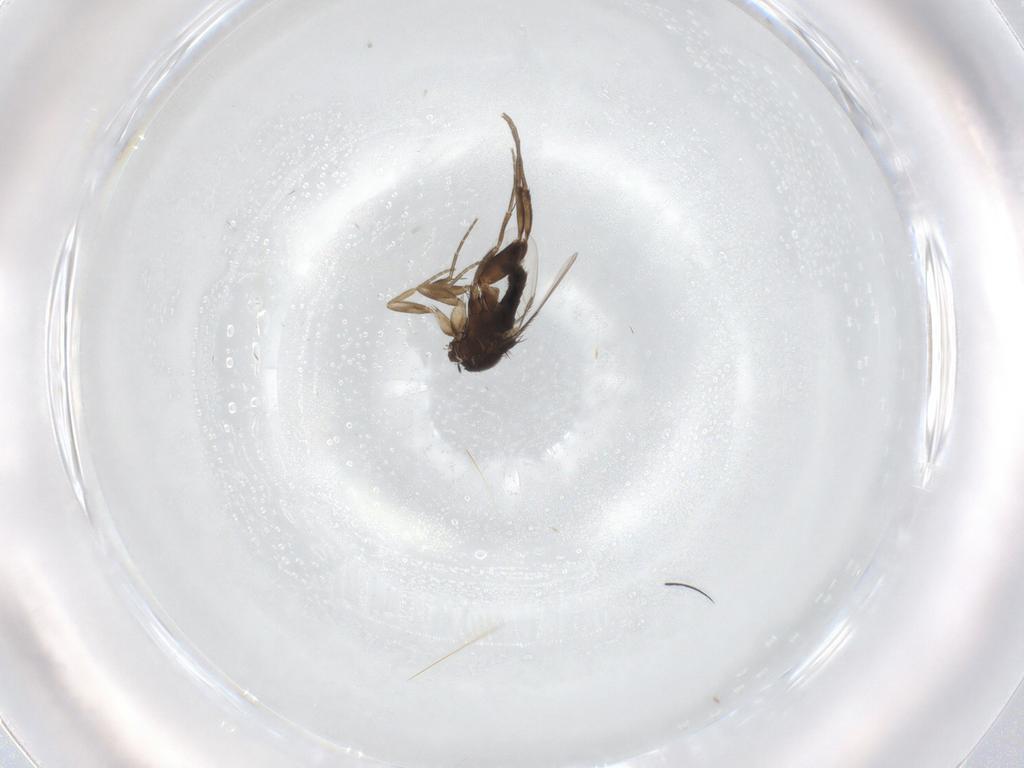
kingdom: Animalia
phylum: Arthropoda
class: Insecta
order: Diptera
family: Phoridae
